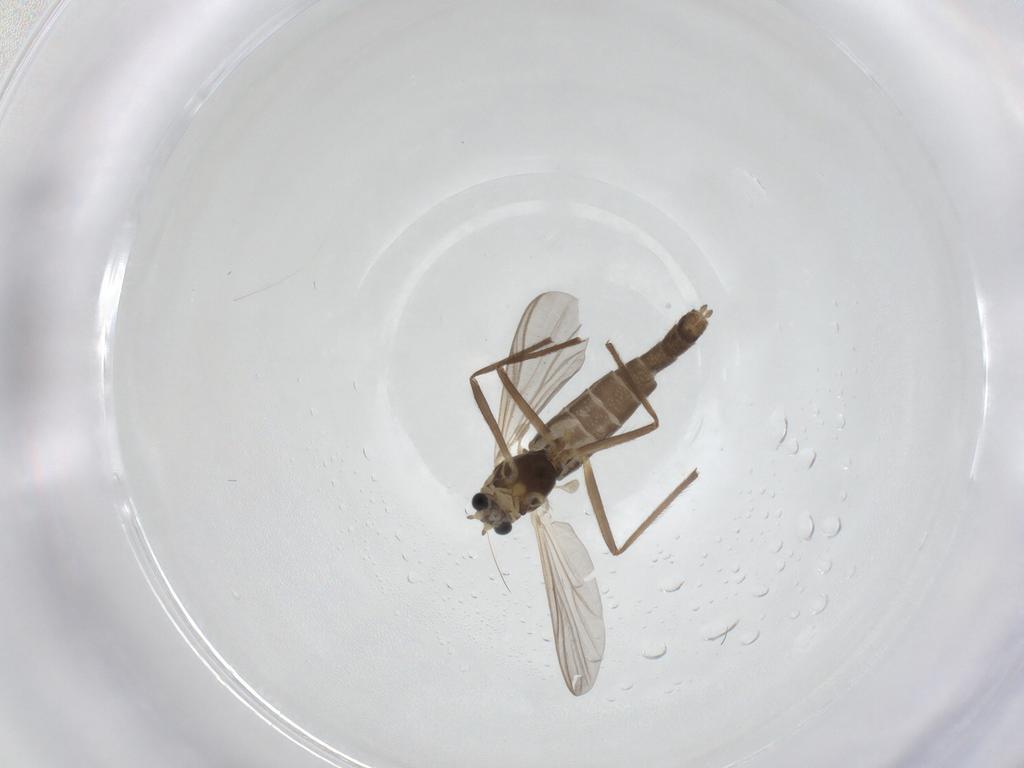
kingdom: Animalia
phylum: Arthropoda
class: Insecta
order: Diptera
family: Chironomidae
